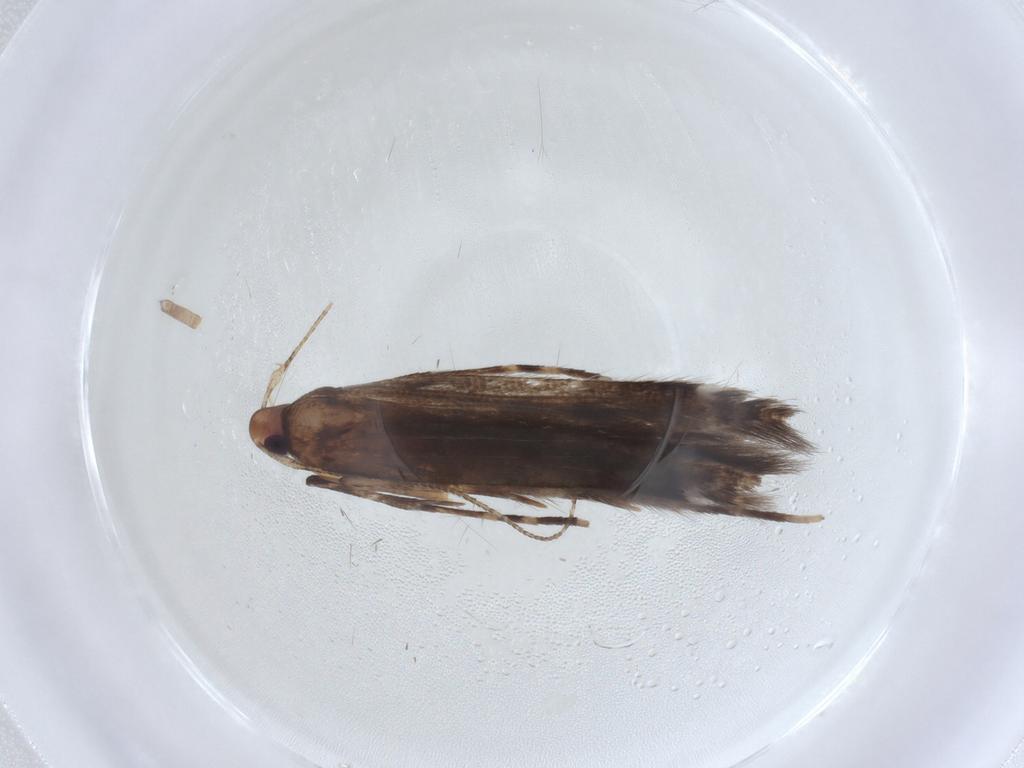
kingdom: Animalia
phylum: Arthropoda
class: Insecta
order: Lepidoptera
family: Cosmopterigidae
